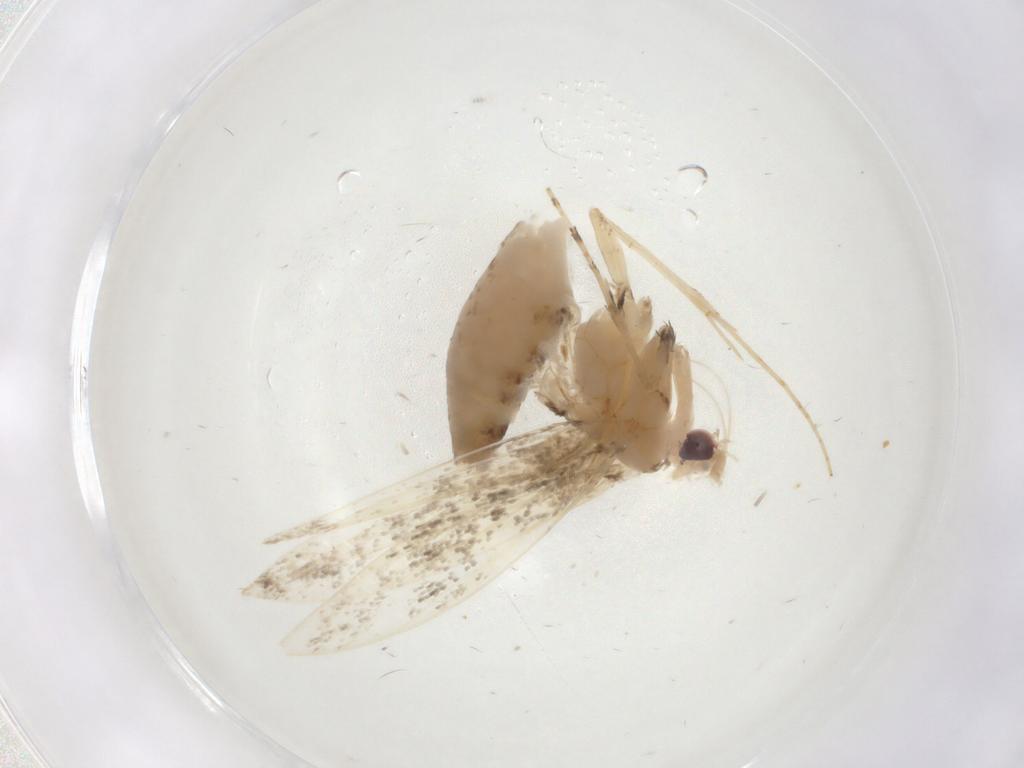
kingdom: Animalia
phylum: Arthropoda
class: Insecta
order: Lepidoptera
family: Gracillariidae
